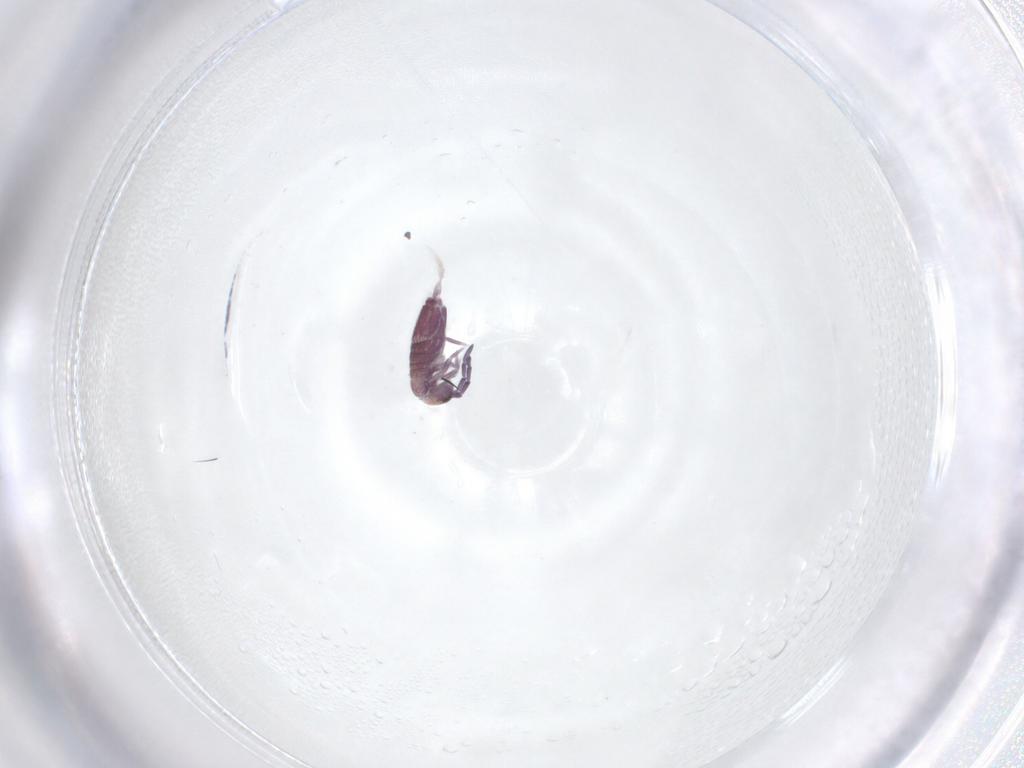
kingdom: Animalia
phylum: Arthropoda
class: Collembola
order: Entomobryomorpha
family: Entomobryidae
